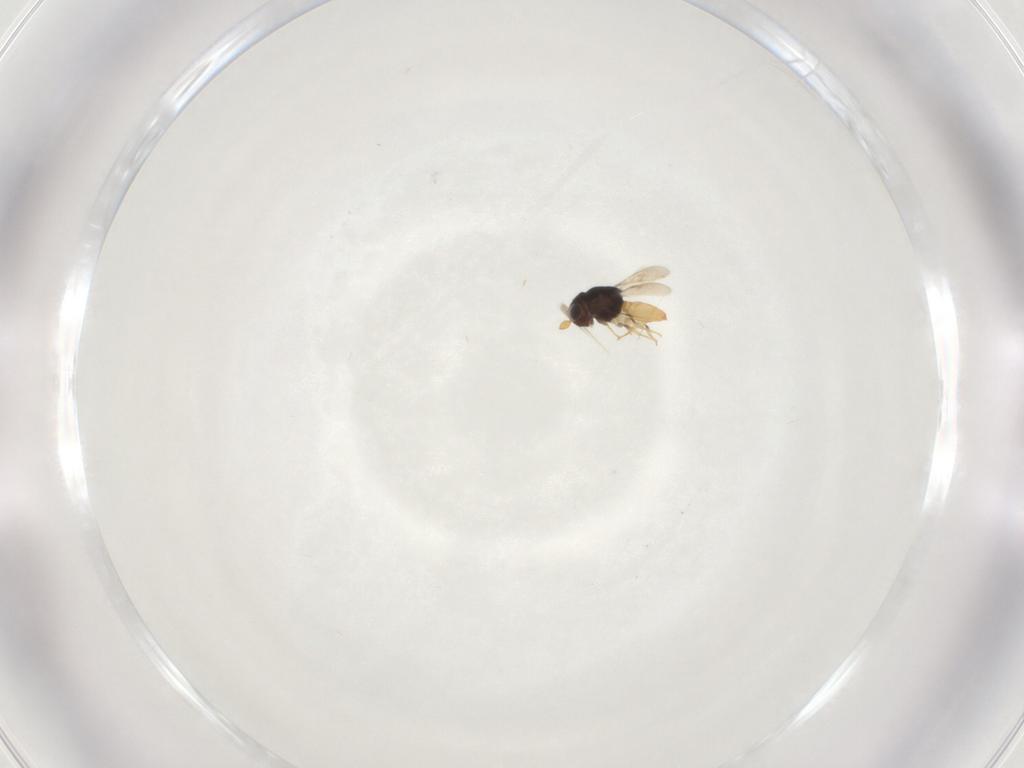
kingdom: Animalia
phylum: Arthropoda
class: Insecta
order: Hymenoptera
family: Scelionidae
